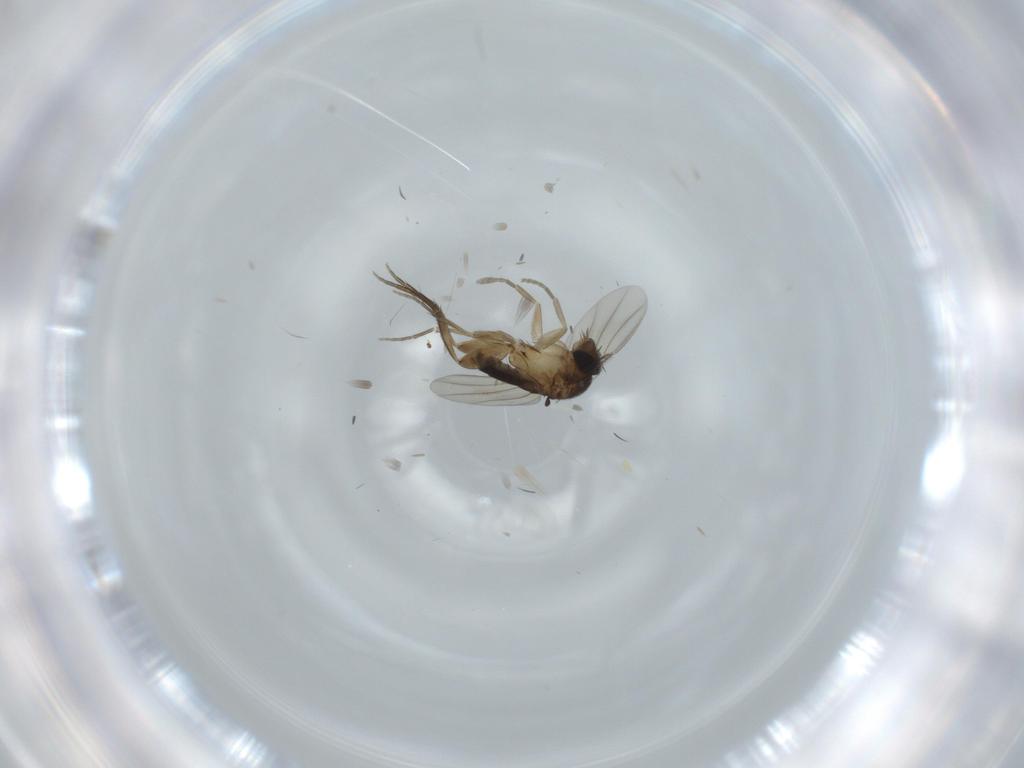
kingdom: Animalia
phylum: Arthropoda
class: Insecta
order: Diptera
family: Phoridae
